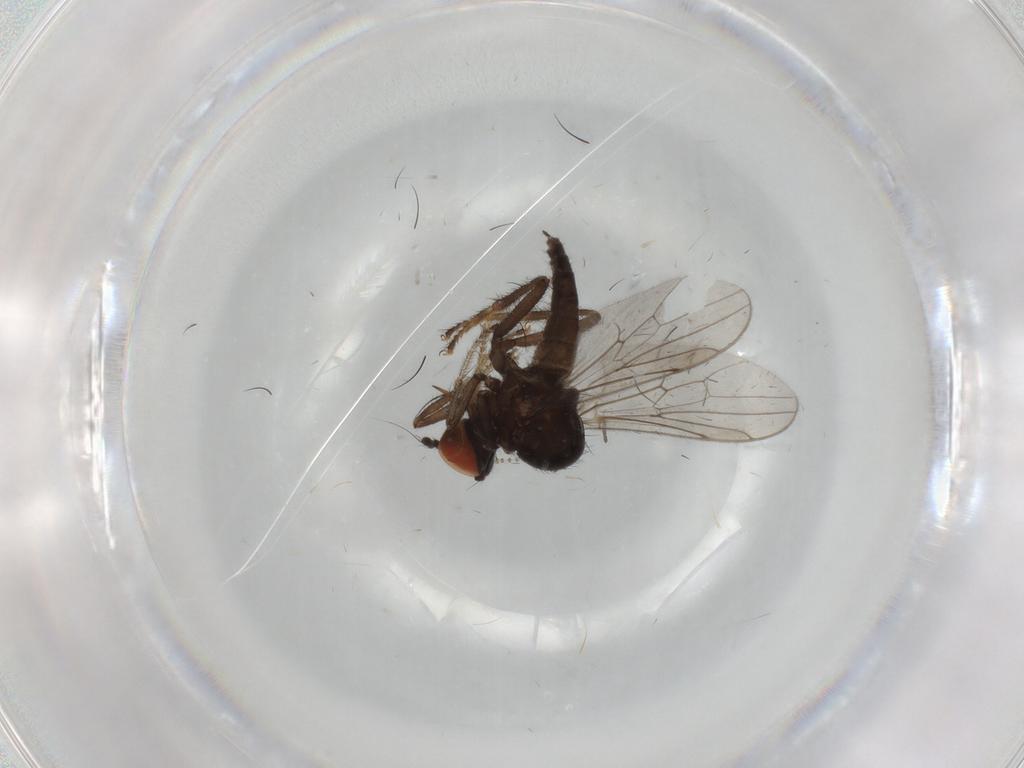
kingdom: Animalia
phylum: Arthropoda
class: Insecta
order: Diptera
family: Hybotidae
